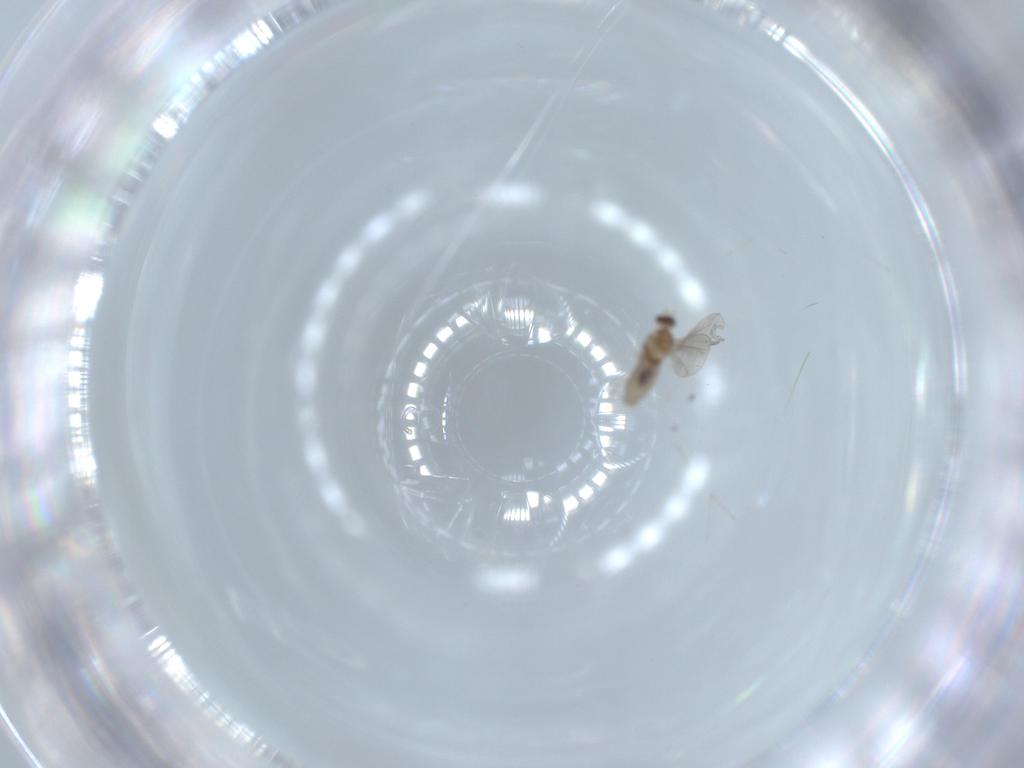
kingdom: Animalia
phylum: Arthropoda
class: Insecta
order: Diptera
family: Cecidomyiidae
